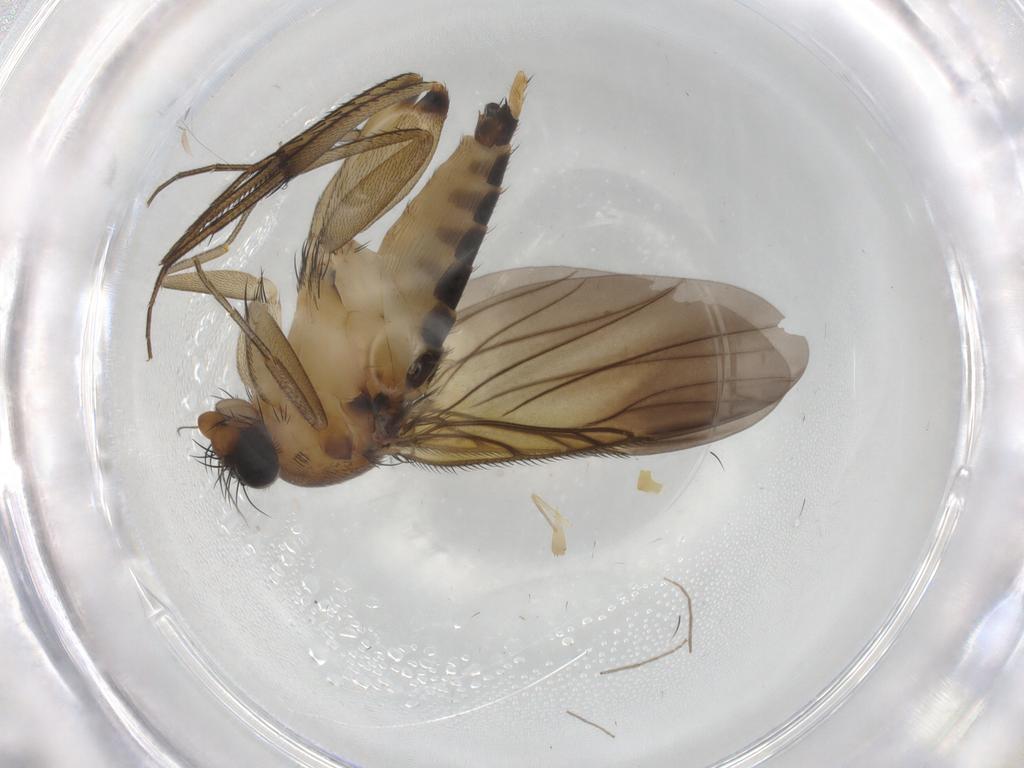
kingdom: Animalia
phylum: Arthropoda
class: Insecta
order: Diptera
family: Phoridae
